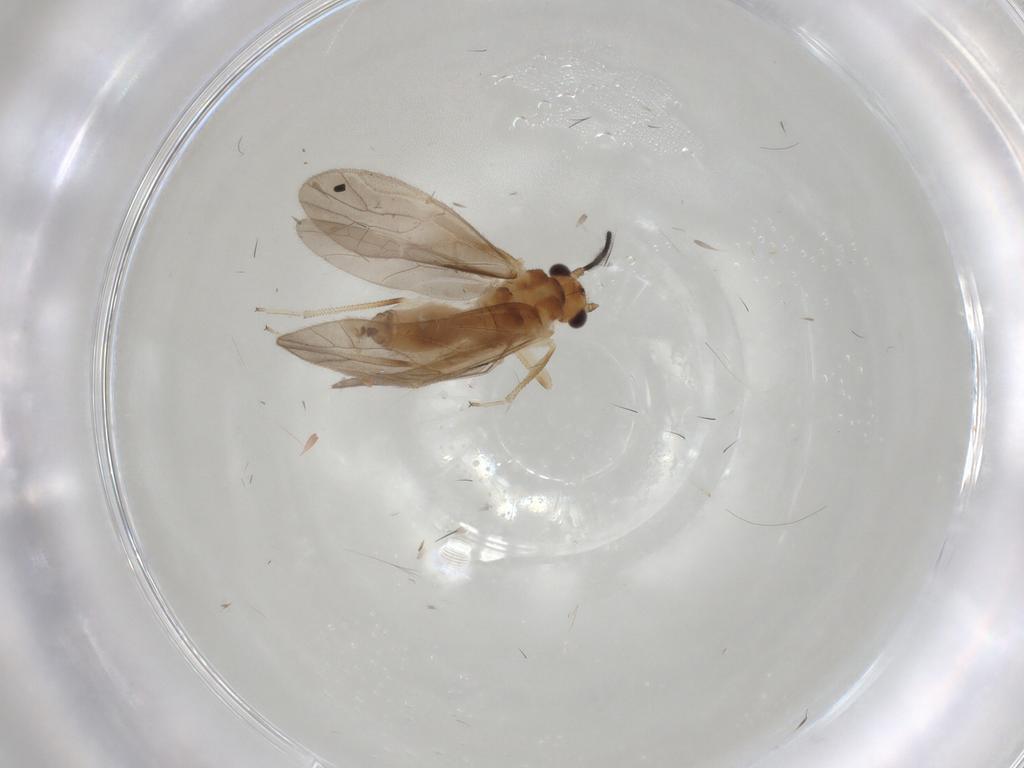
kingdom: Animalia
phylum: Arthropoda
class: Insecta
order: Psocodea
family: Caeciliusidae
